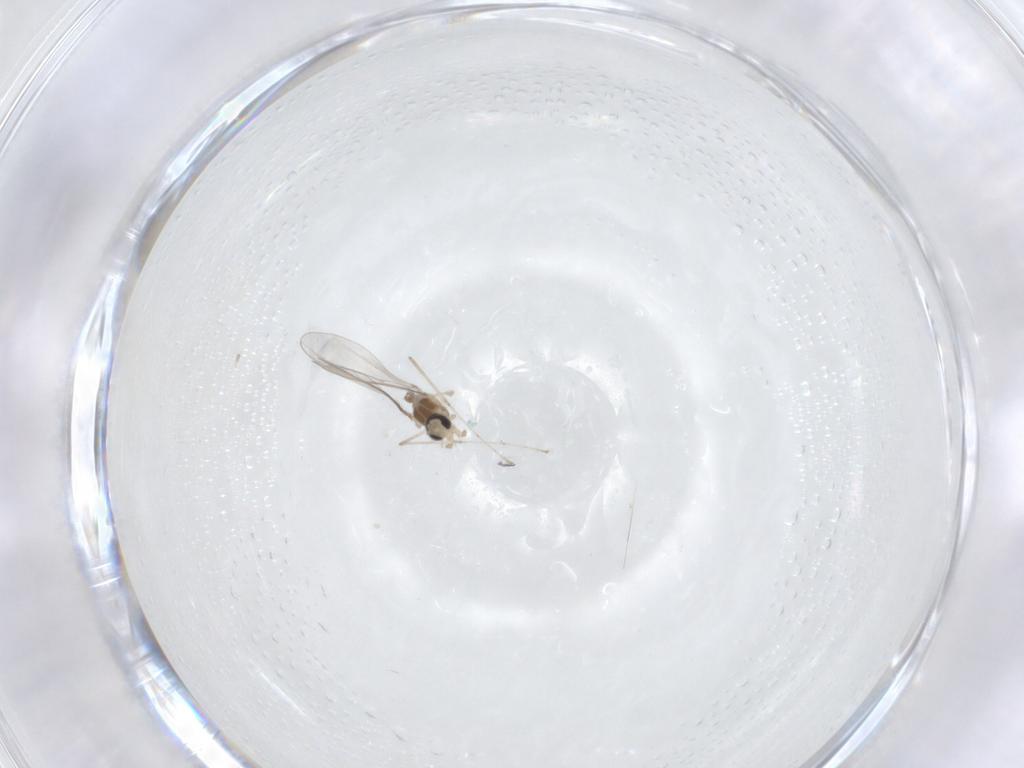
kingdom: Animalia
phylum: Arthropoda
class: Insecta
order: Diptera
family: Cecidomyiidae
